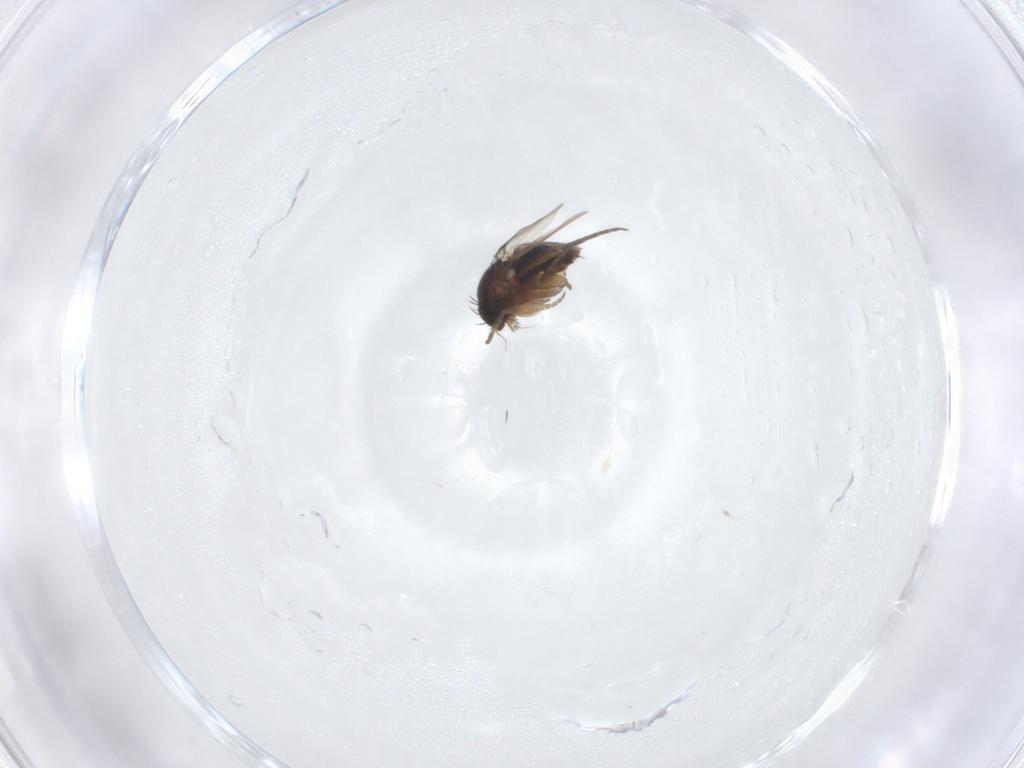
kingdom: Animalia
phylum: Arthropoda
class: Insecta
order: Diptera
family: Phoridae
